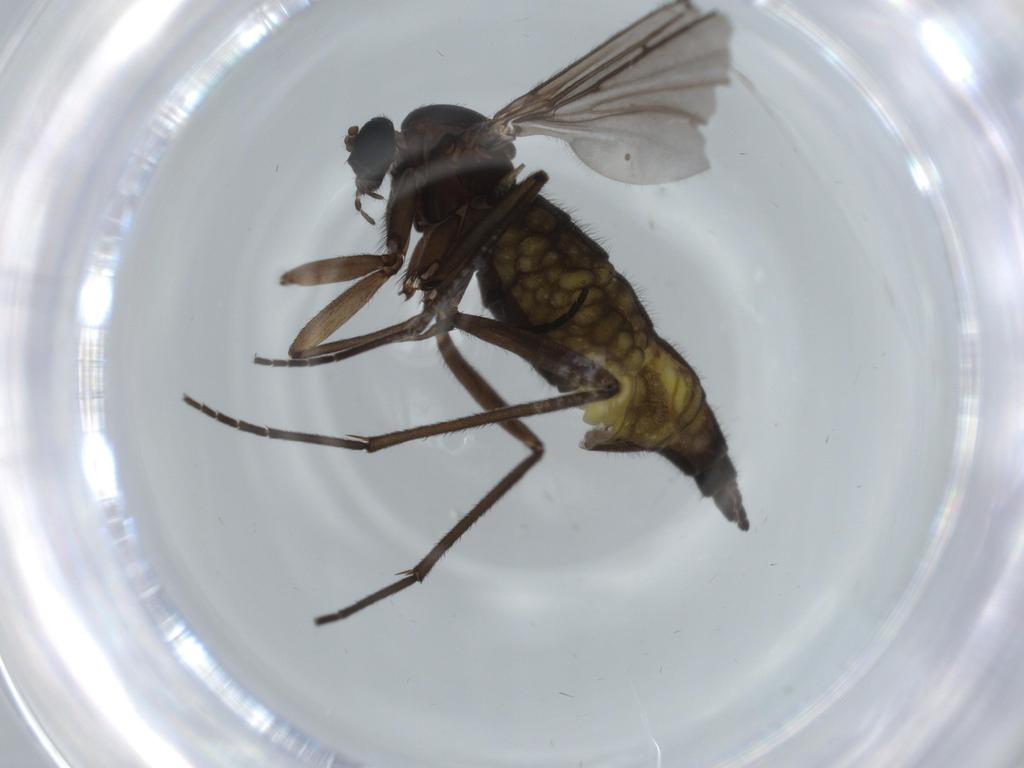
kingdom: Animalia
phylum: Arthropoda
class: Insecta
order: Diptera
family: Sciaridae
